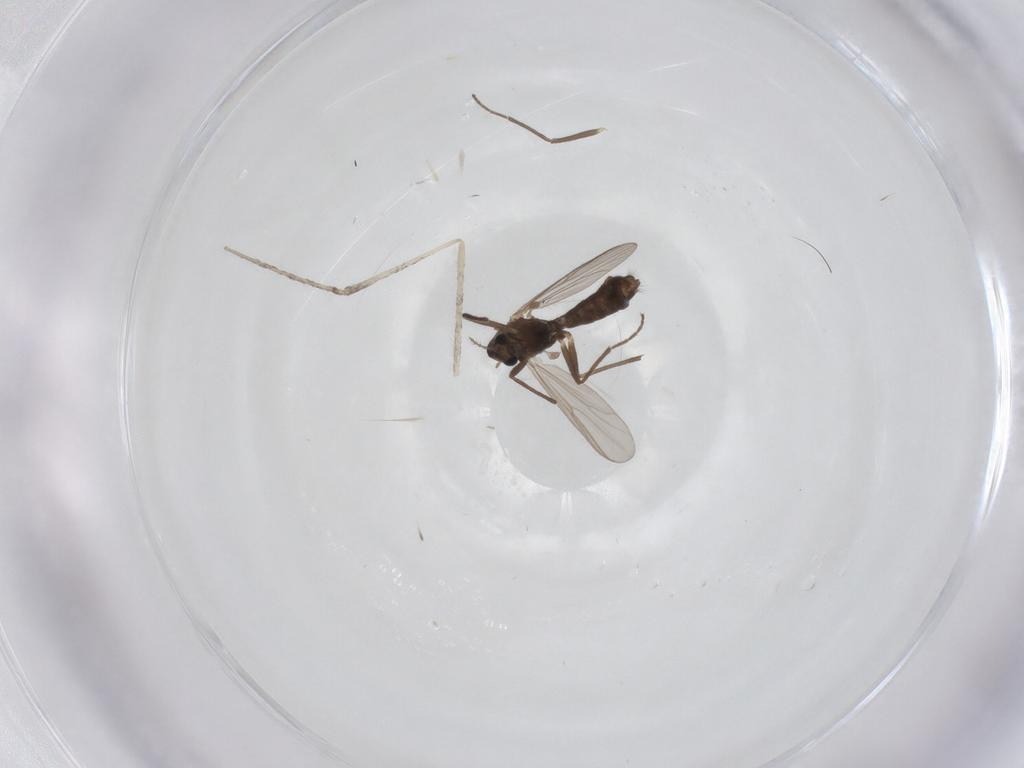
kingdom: Animalia
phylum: Arthropoda
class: Insecta
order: Diptera
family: Chironomidae
